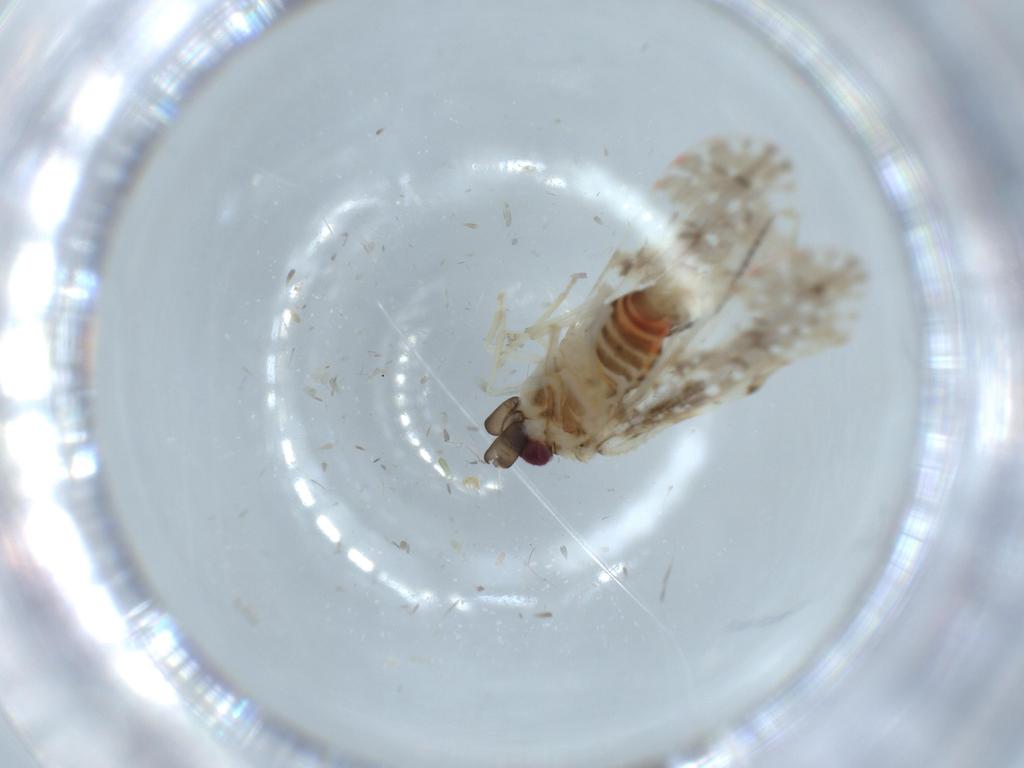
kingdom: Animalia
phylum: Arthropoda
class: Insecta
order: Hemiptera
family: Derbidae
